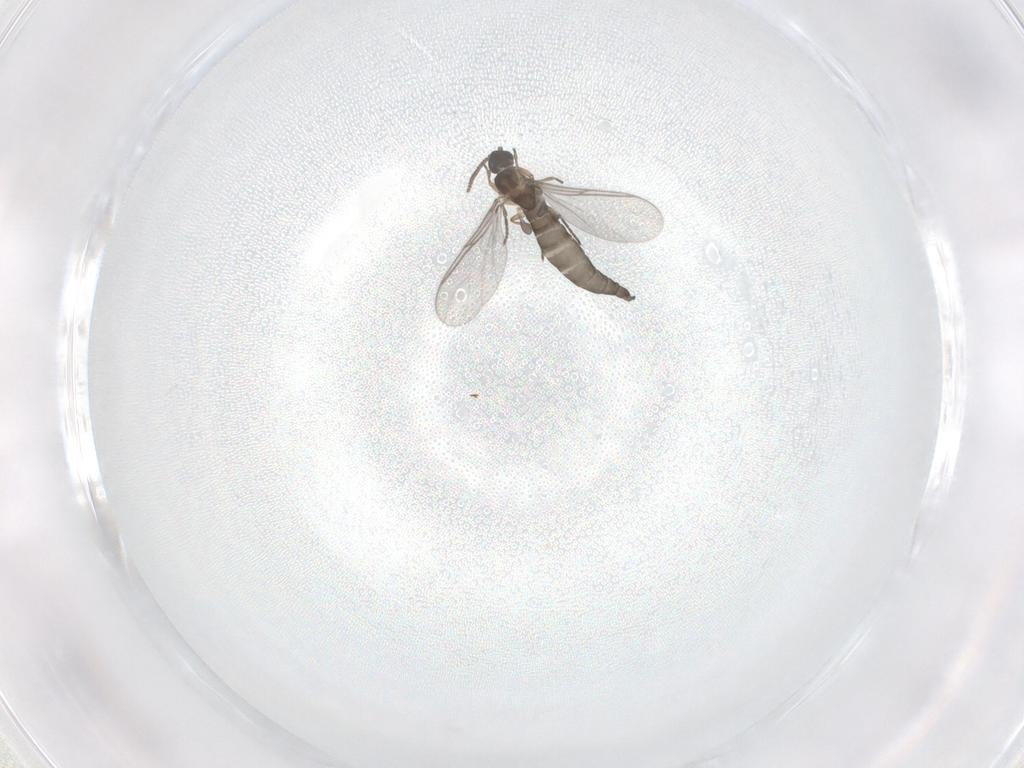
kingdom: Animalia
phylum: Arthropoda
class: Insecta
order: Diptera
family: Sciaridae
